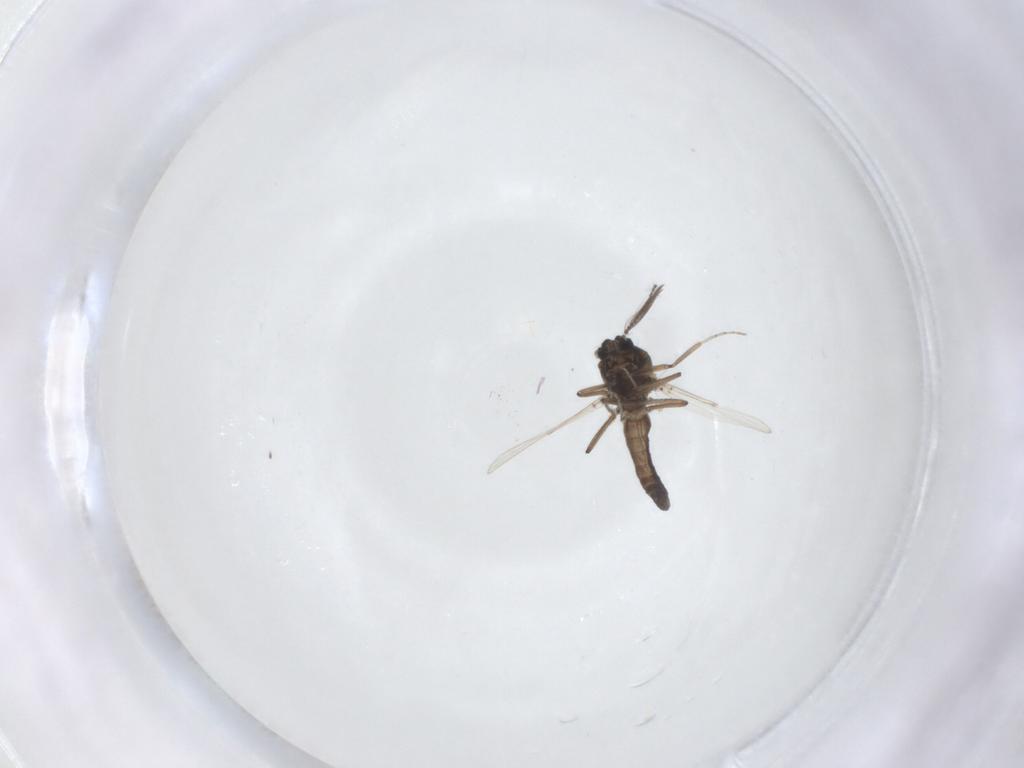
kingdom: Animalia
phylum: Arthropoda
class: Insecta
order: Diptera
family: Ceratopogonidae
